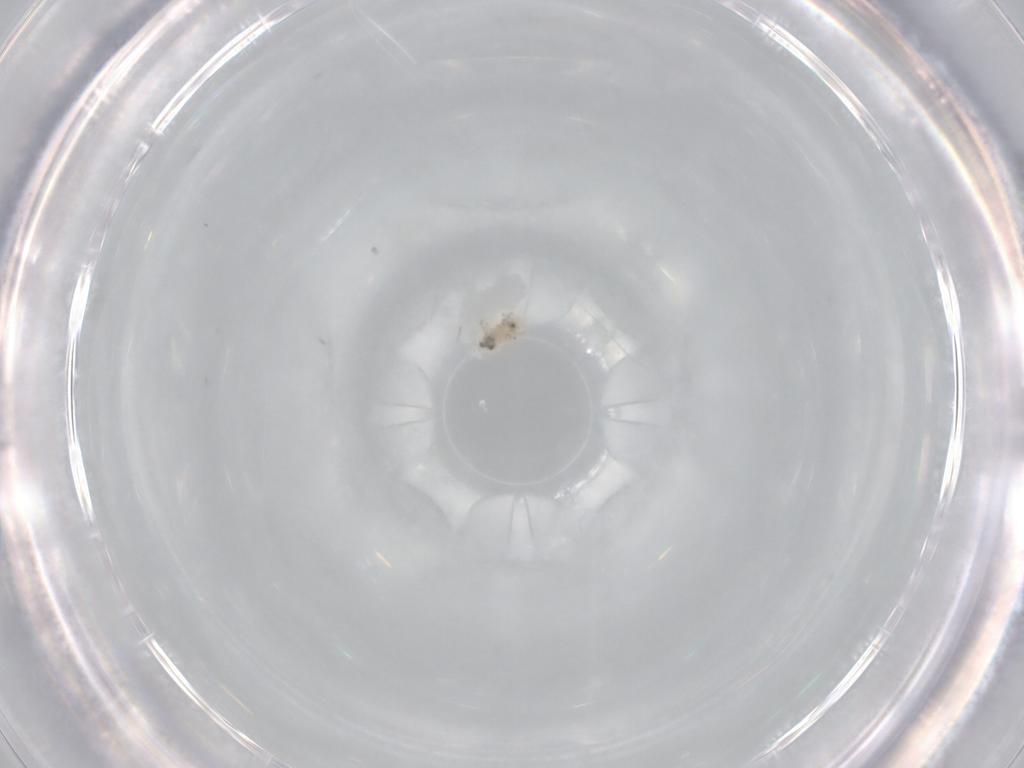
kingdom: Animalia
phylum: Arthropoda
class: Insecta
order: Psocodea
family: Peripsocidae
